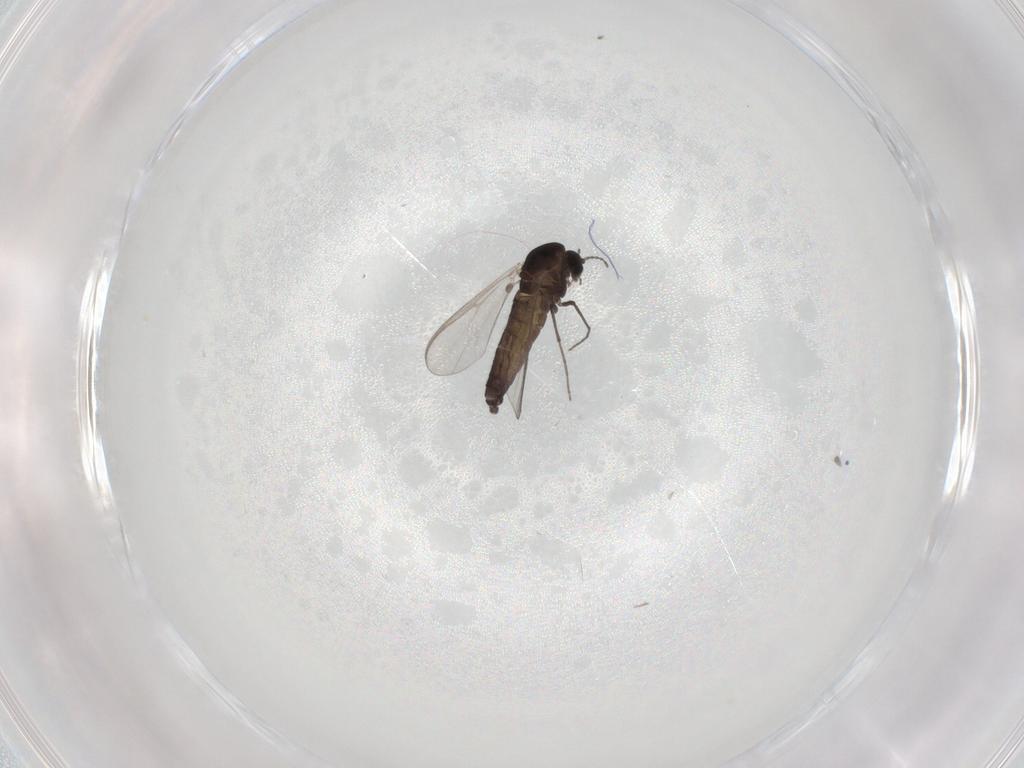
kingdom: Animalia
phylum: Arthropoda
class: Insecta
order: Diptera
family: Chironomidae
